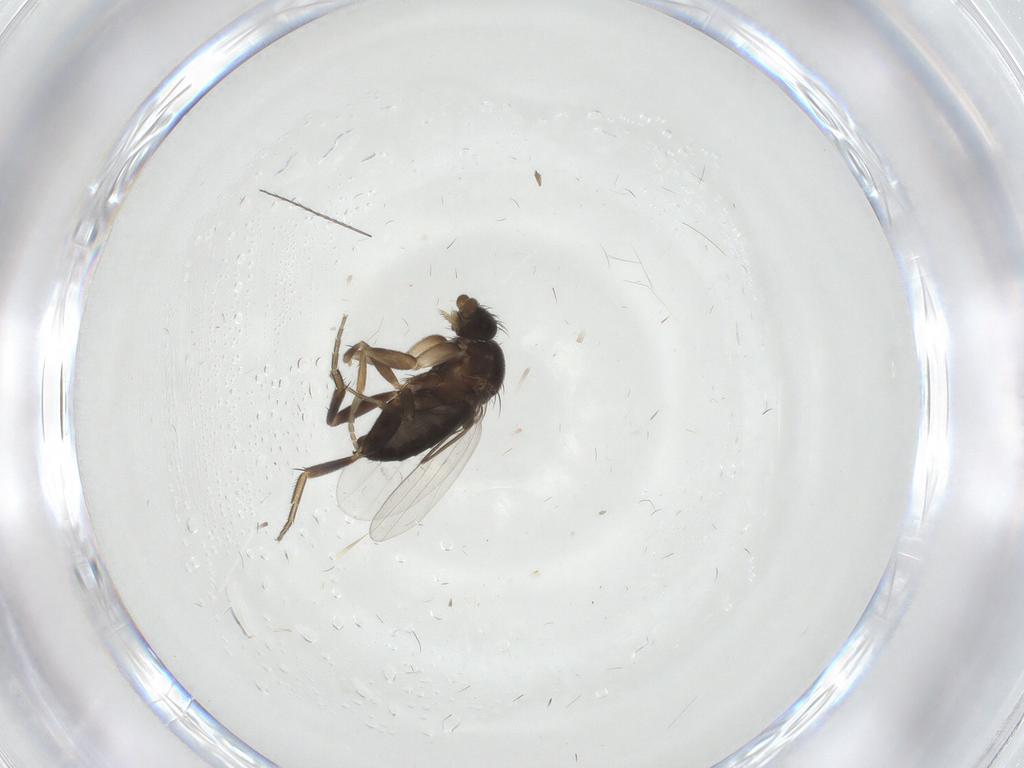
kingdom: Animalia
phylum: Arthropoda
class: Insecta
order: Diptera
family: Phoridae
